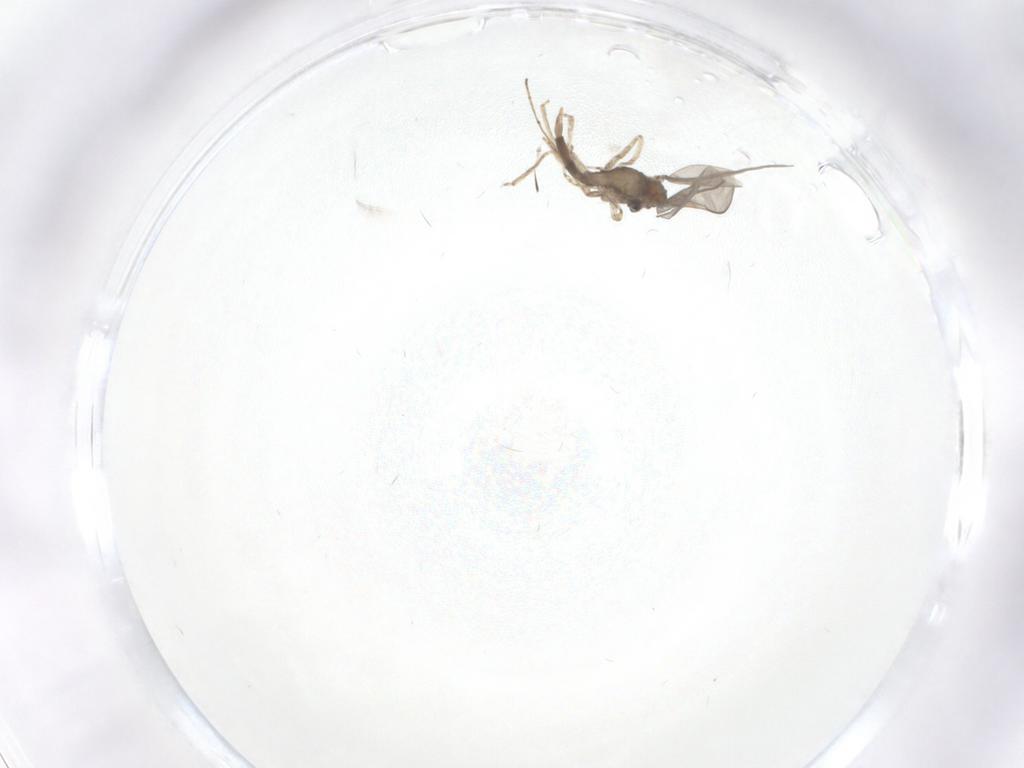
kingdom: Animalia
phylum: Arthropoda
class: Insecta
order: Diptera
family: Cecidomyiidae
